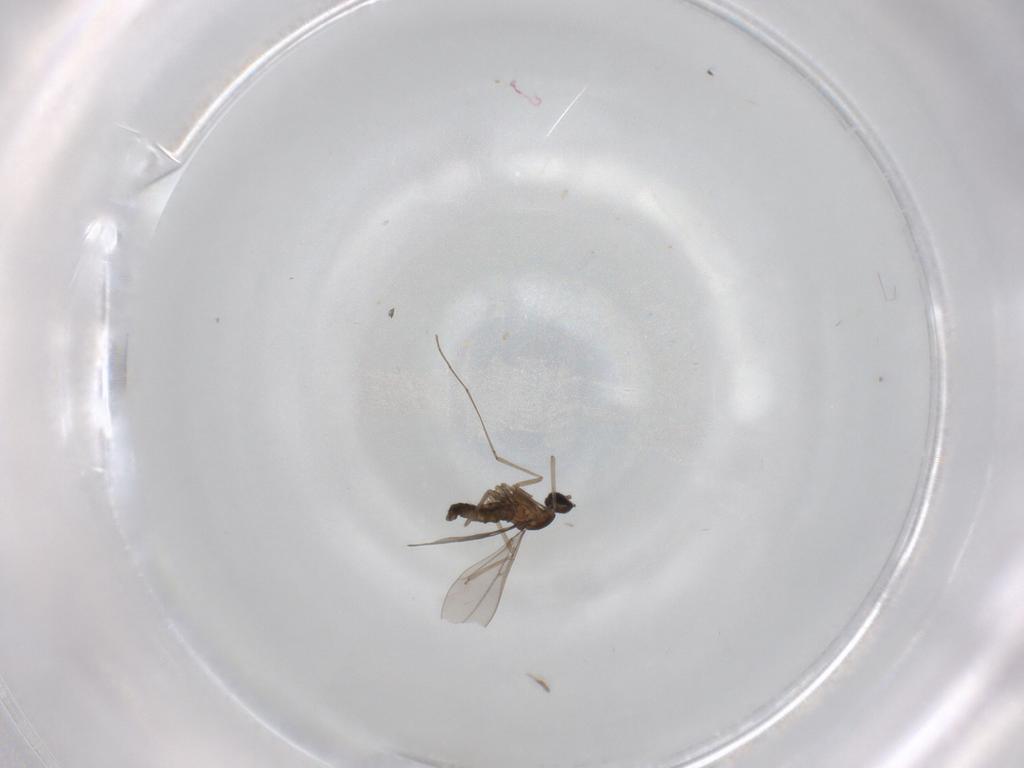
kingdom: Animalia
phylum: Arthropoda
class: Insecta
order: Diptera
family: Cecidomyiidae
